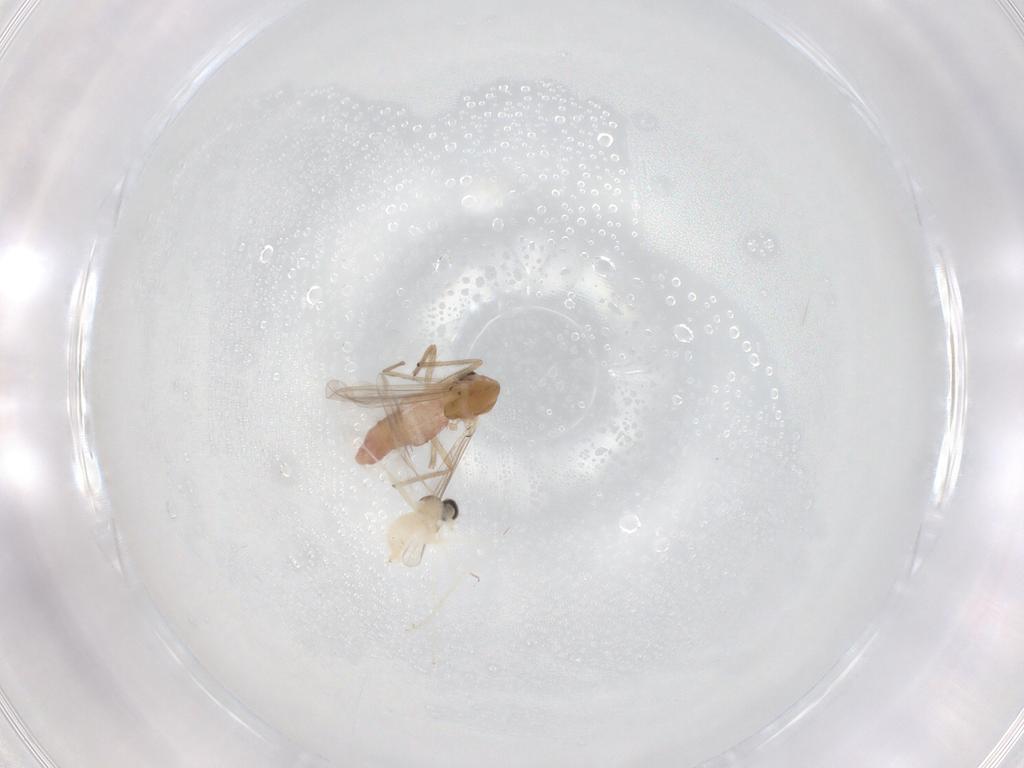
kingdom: Animalia
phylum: Arthropoda
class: Insecta
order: Diptera
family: Chironomidae
